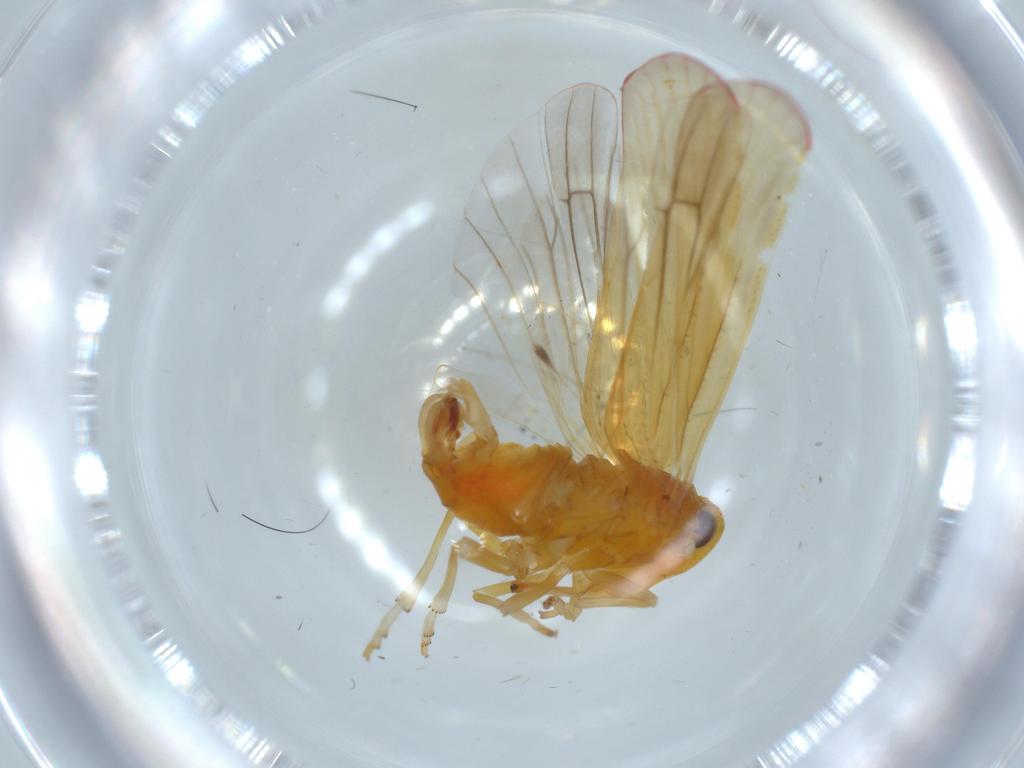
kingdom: Animalia
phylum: Arthropoda
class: Insecta
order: Hemiptera
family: Derbidae
